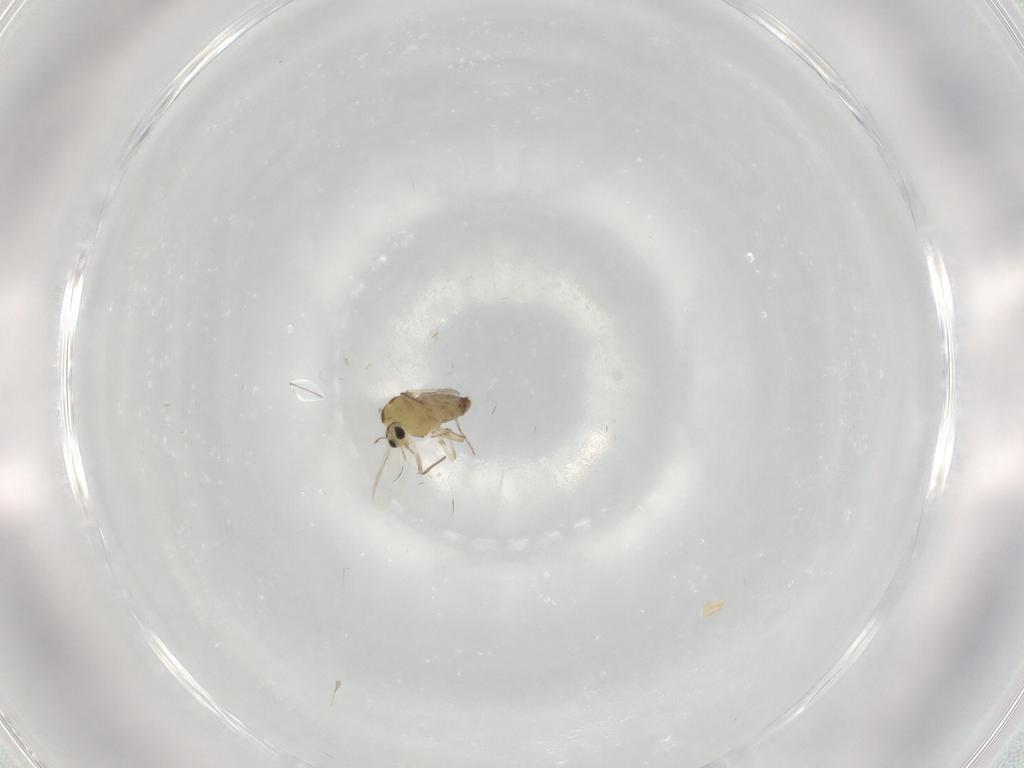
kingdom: Animalia
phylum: Arthropoda
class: Insecta
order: Diptera
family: Chironomidae
